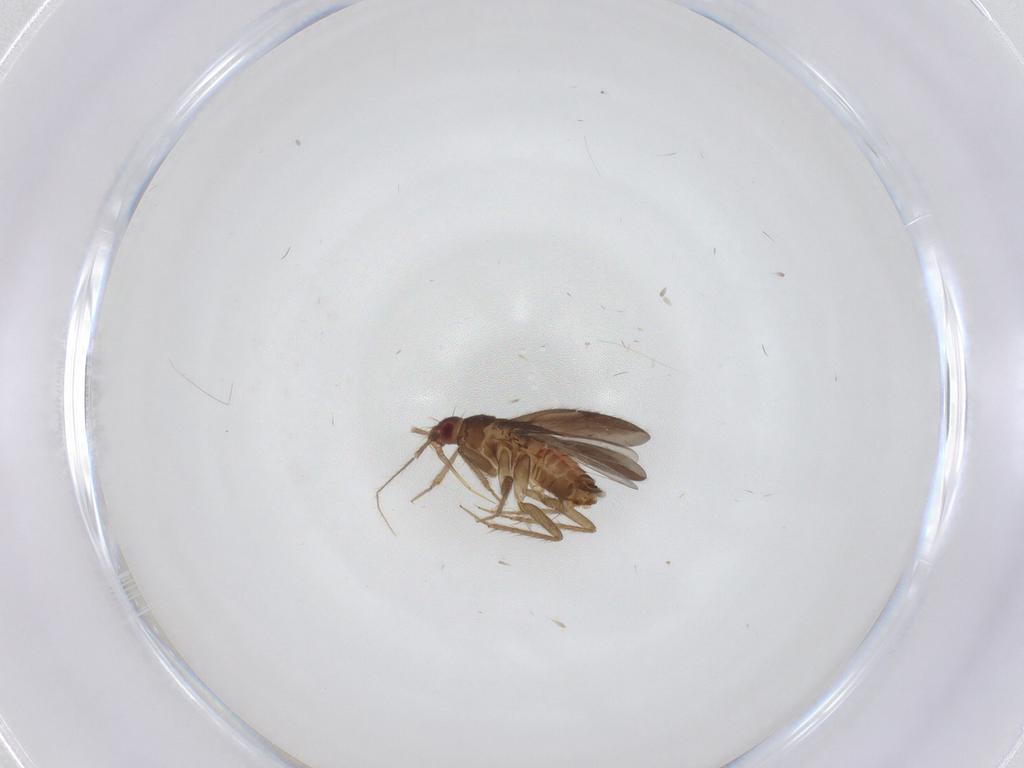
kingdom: Animalia
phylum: Arthropoda
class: Insecta
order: Hemiptera
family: Ceratocombidae
